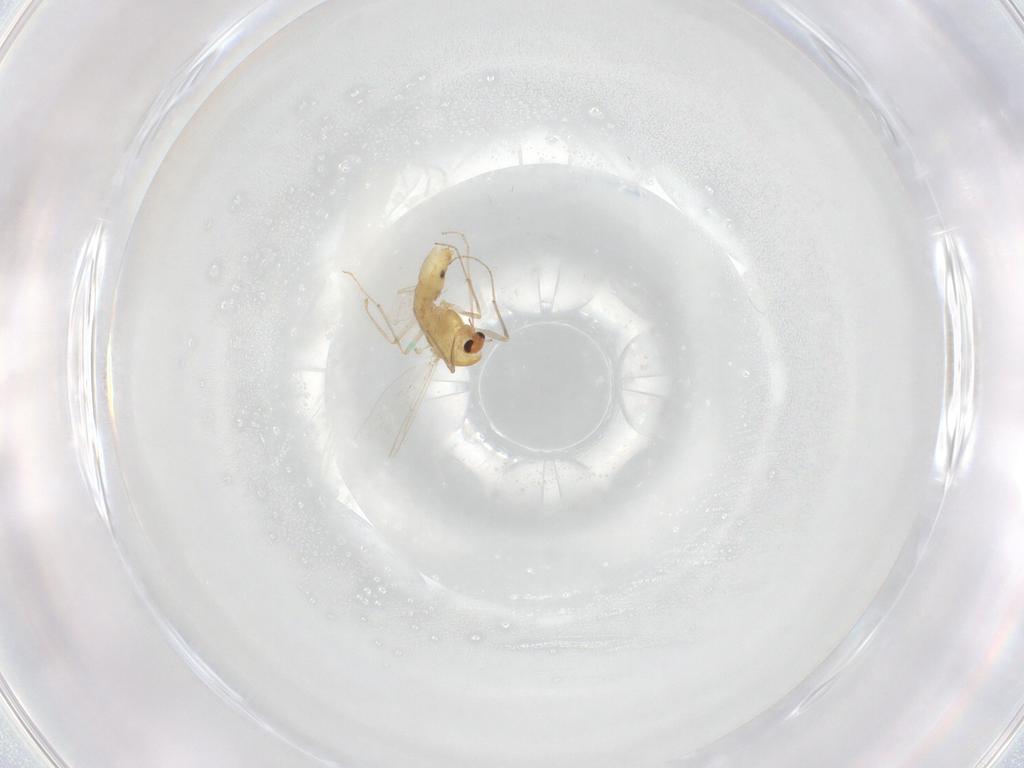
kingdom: Animalia
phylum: Arthropoda
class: Insecta
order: Diptera
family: Chironomidae
